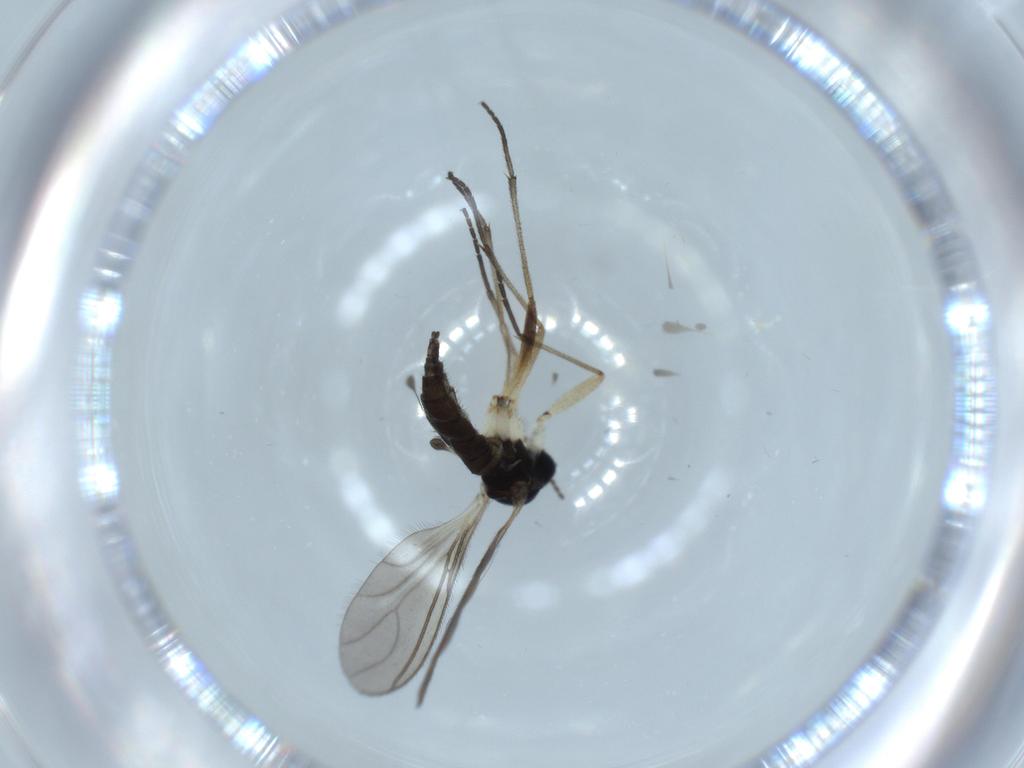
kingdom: Animalia
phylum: Arthropoda
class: Insecta
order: Diptera
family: Sciaridae
